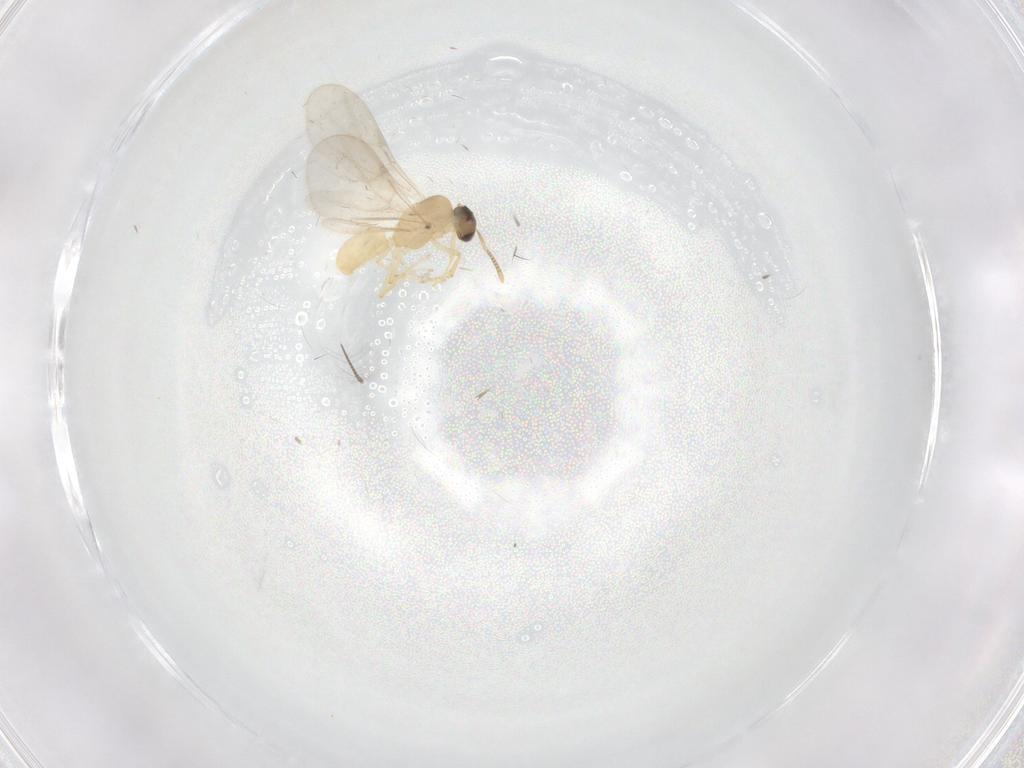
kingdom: Animalia
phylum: Arthropoda
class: Insecta
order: Hymenoptera
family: Formicidae
